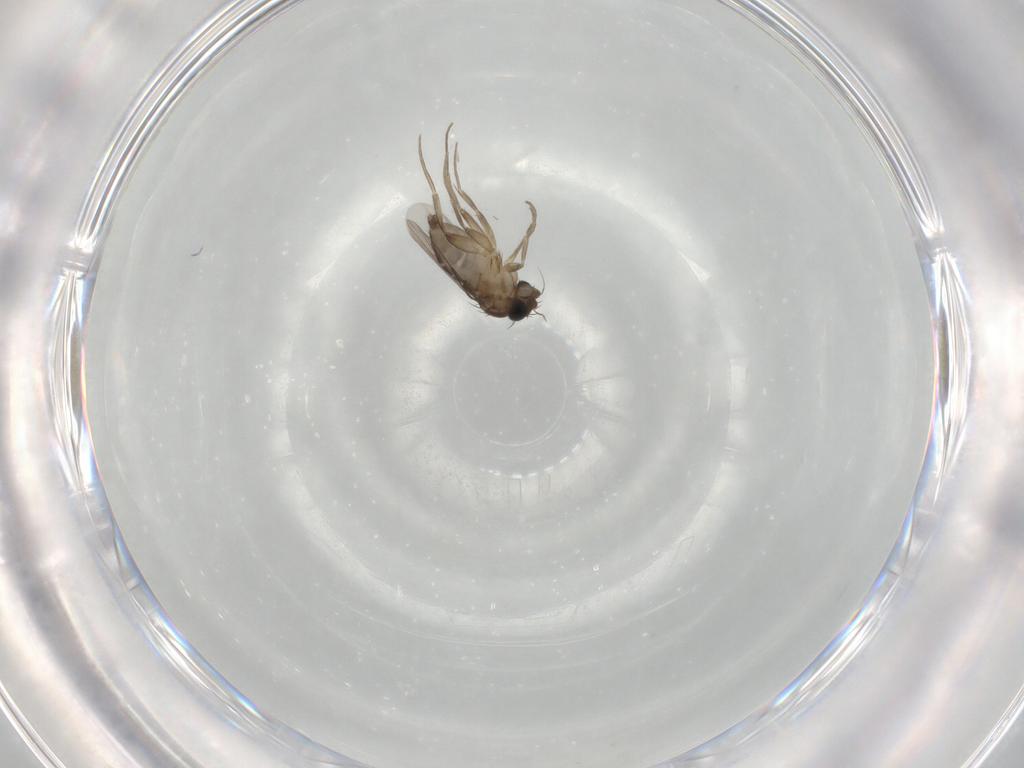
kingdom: Animalia
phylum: Arthropoda
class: Insecta
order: Diptera
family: Phoridae
